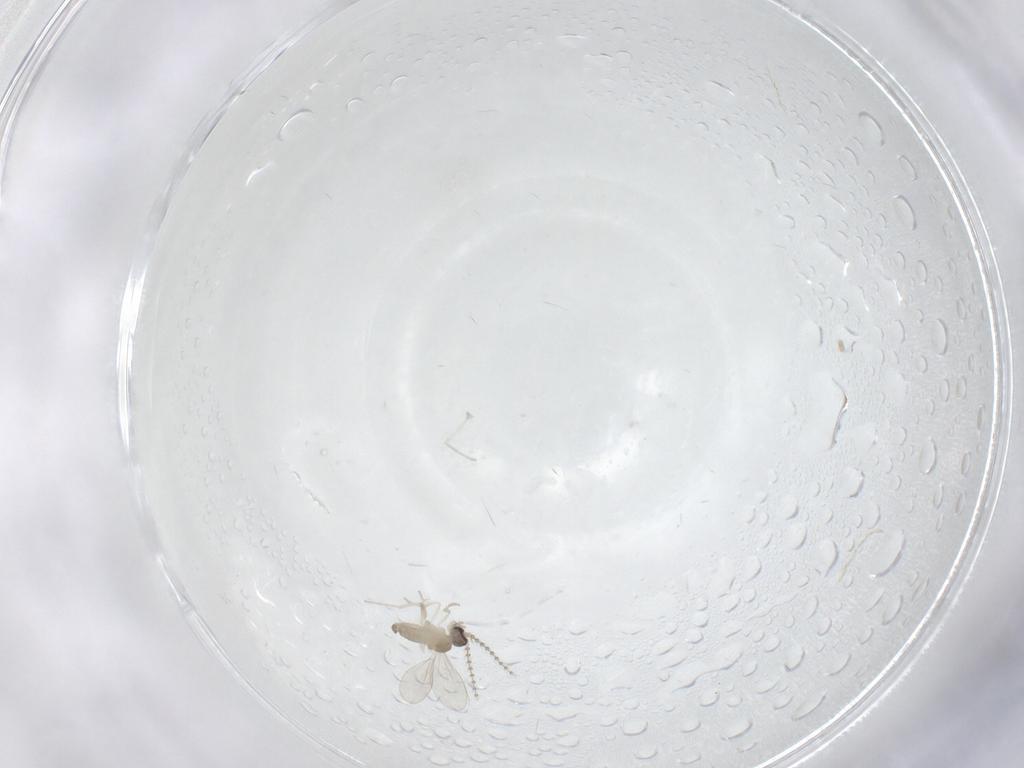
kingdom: Animalia
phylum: Arthropoda
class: Insecta
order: Diptera
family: Cecidomyiidae
